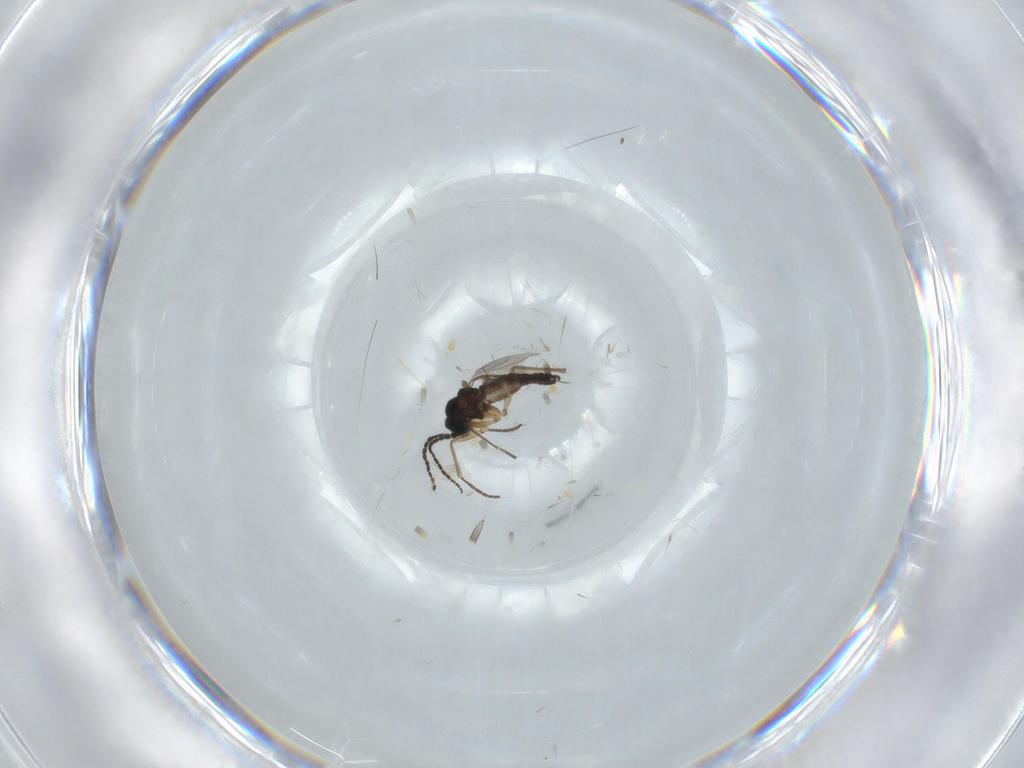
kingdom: Animalia
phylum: Arthropoda
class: Insecta
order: Diptera
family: Sciaridae
